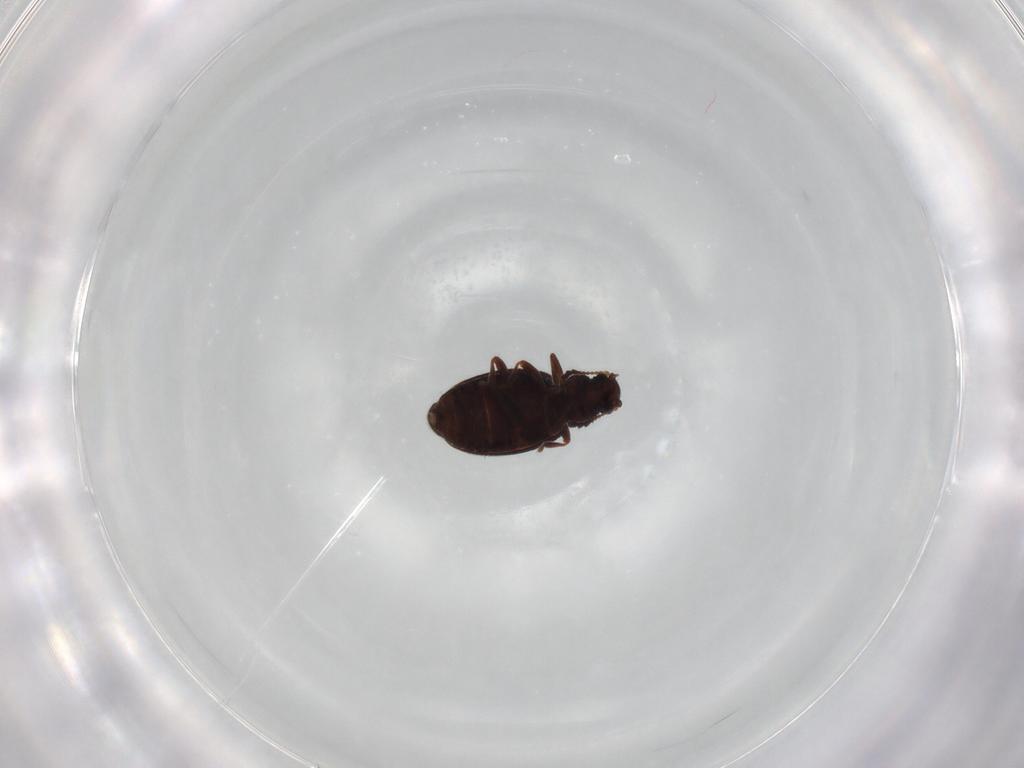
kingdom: Animalia
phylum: Arthropoda
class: Insecta
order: Coleoptera
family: Latridiidae
